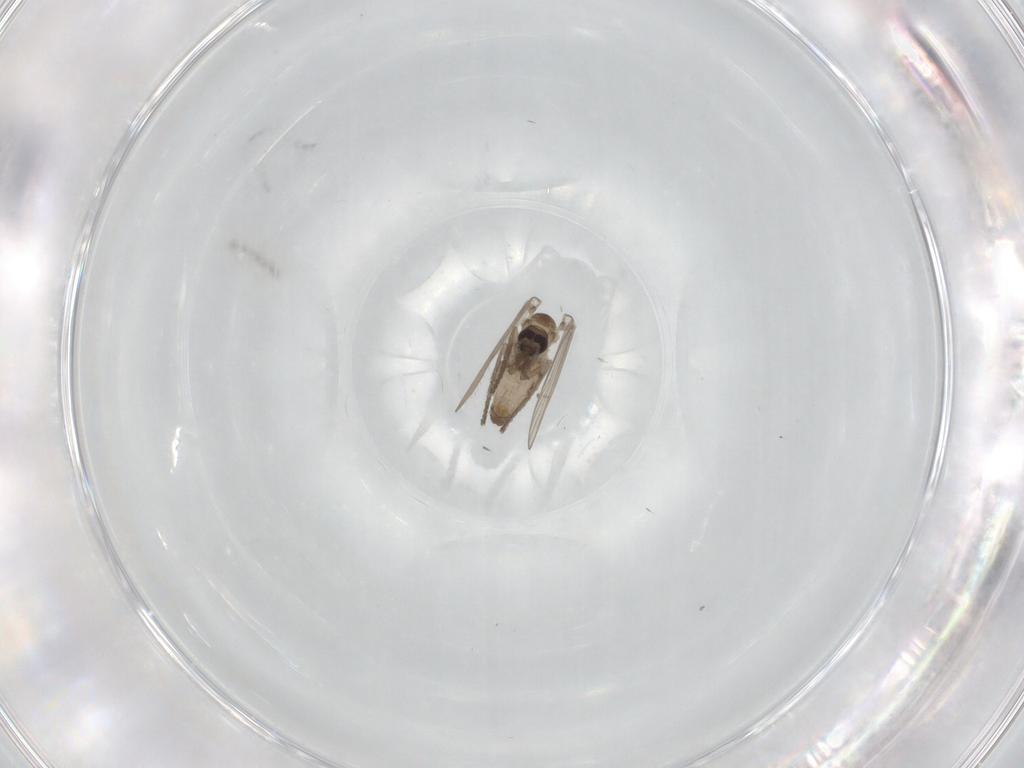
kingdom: Animalia
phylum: Arthropoda
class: Insecta
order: Diptera
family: Psychodidae
